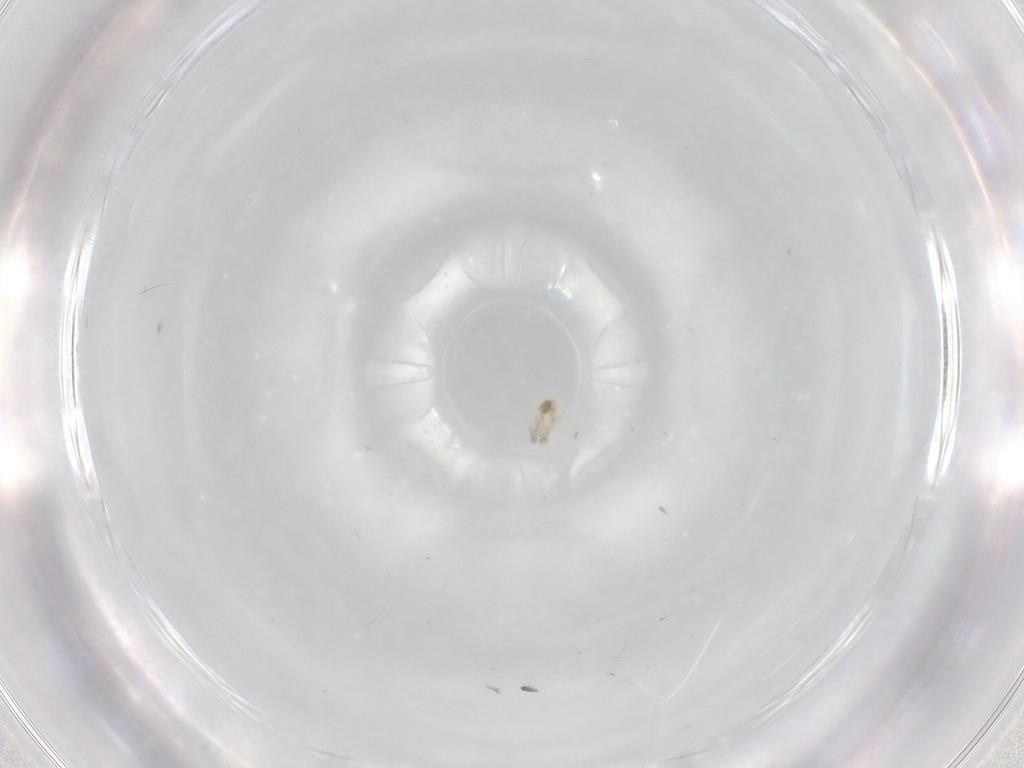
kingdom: Animalia
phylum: Arthropoda
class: Insecta
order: Diptera
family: Cecidomyiidae
